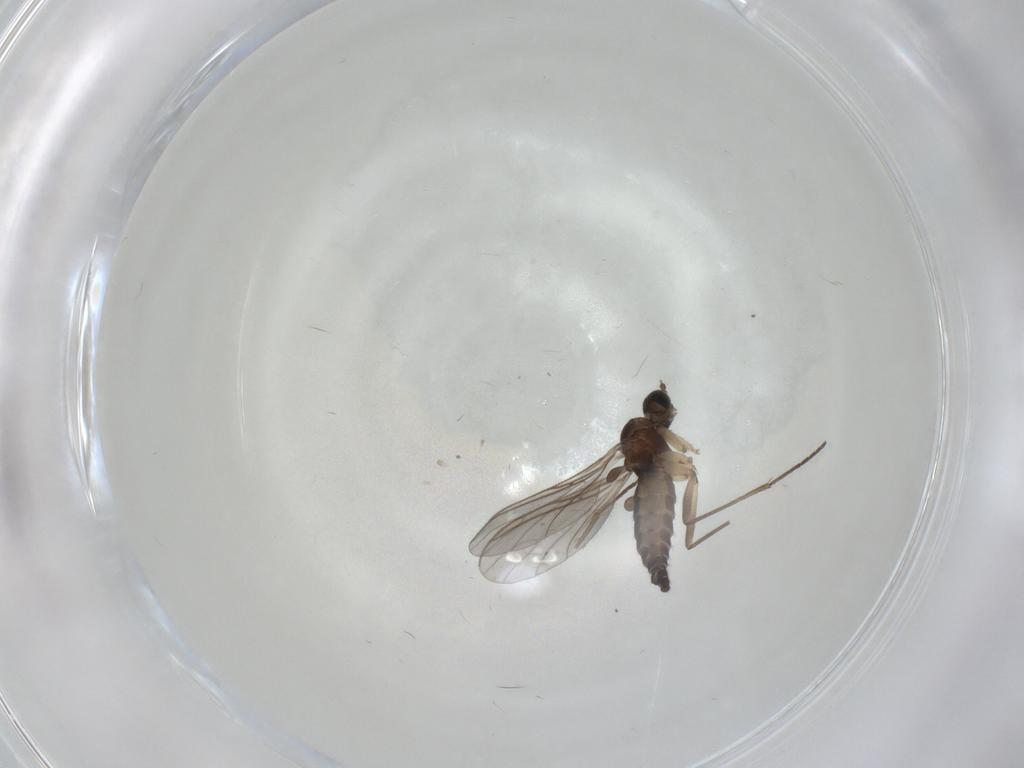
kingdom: Animalia
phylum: Arthropoda
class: Insecta
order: Diptera
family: Sciaridae
